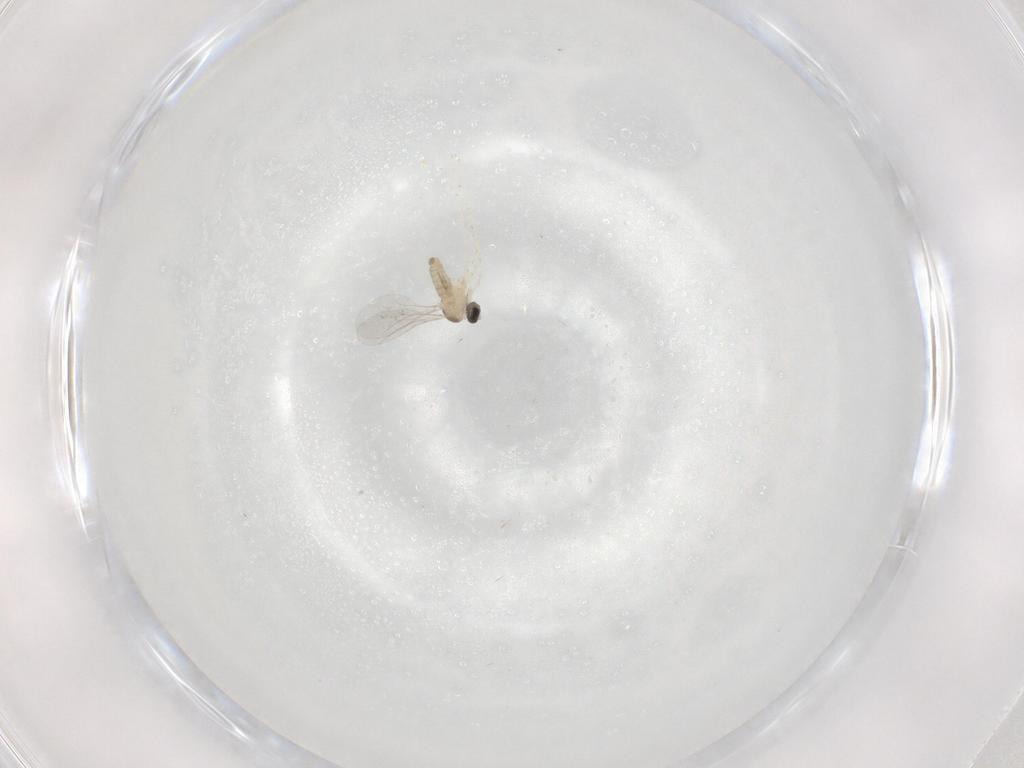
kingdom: Animalia
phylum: Arthropoda
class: Insecta
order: Diptera
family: Cecidomyiidae
